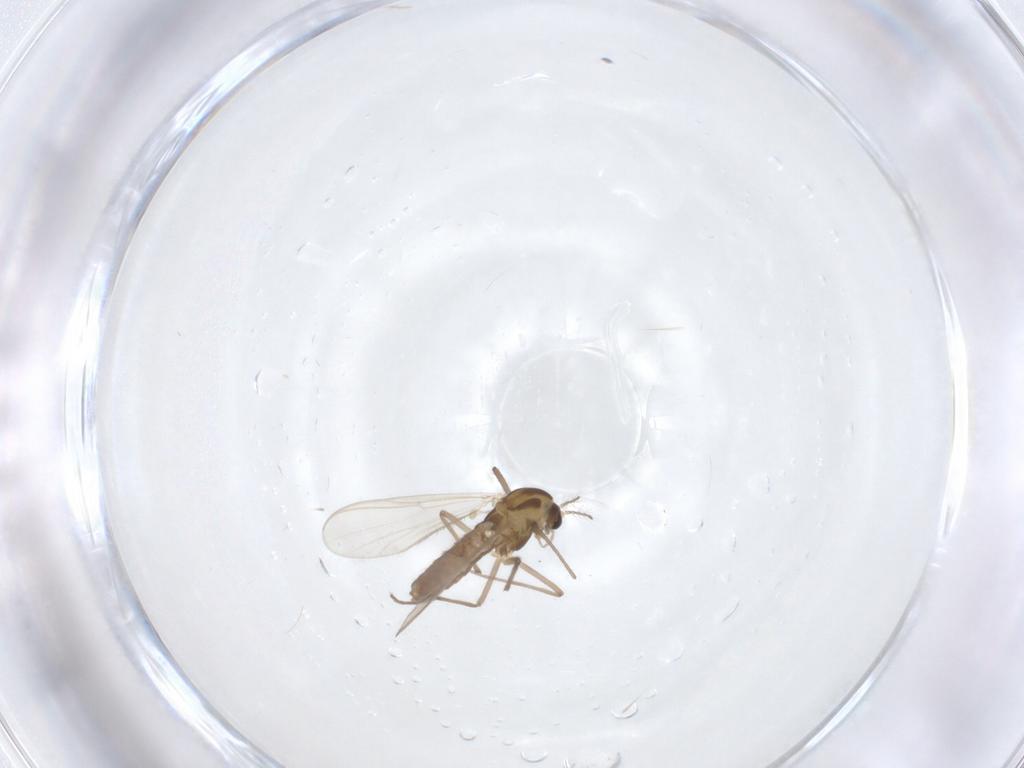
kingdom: Animalia
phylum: Arthropoda
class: Insecta
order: Diptera
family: Chironomidae
